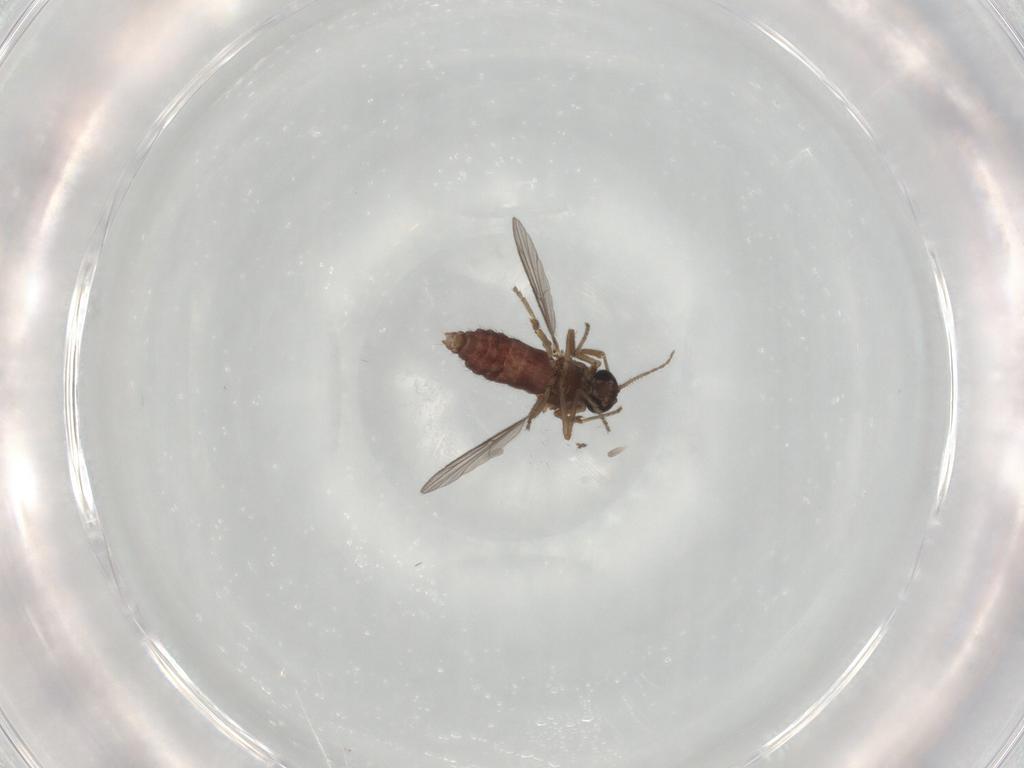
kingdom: Animalia
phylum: Arthropoda
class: Insecta
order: Diptera
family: Ceratopogonidae
